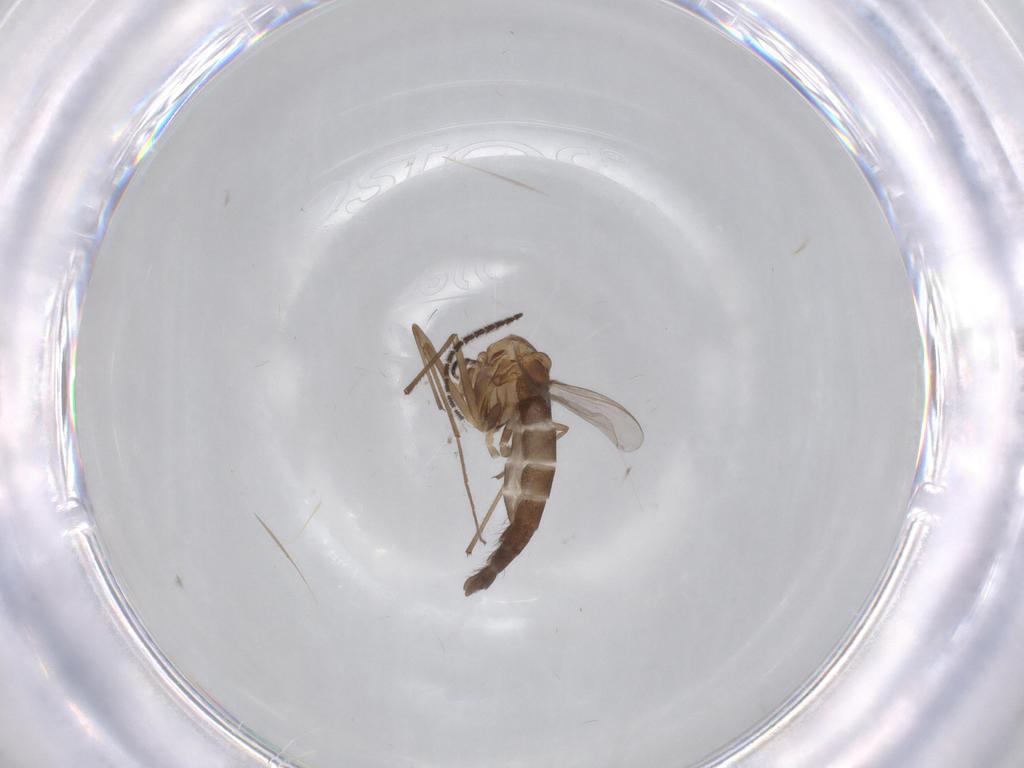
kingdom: Animalia
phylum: Arthropoda
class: Insecta
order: Diptera
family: Chironomidae
